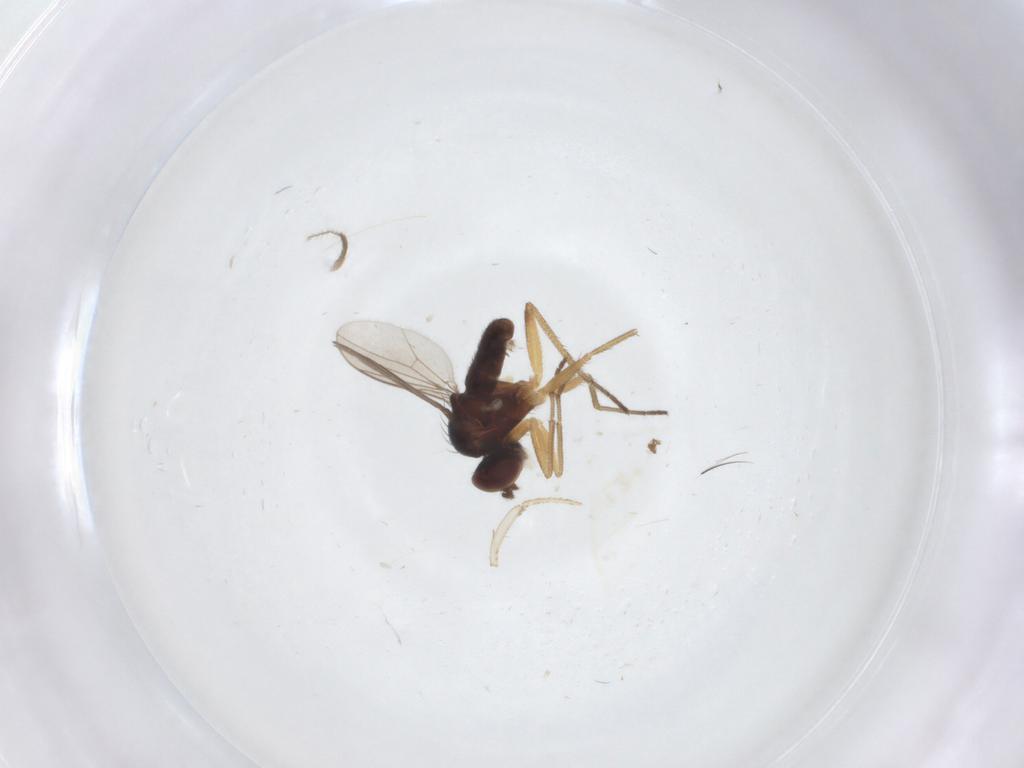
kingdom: Animalia
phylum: Arthropoda
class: Insecta
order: Diptera
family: Dolichopodidae
